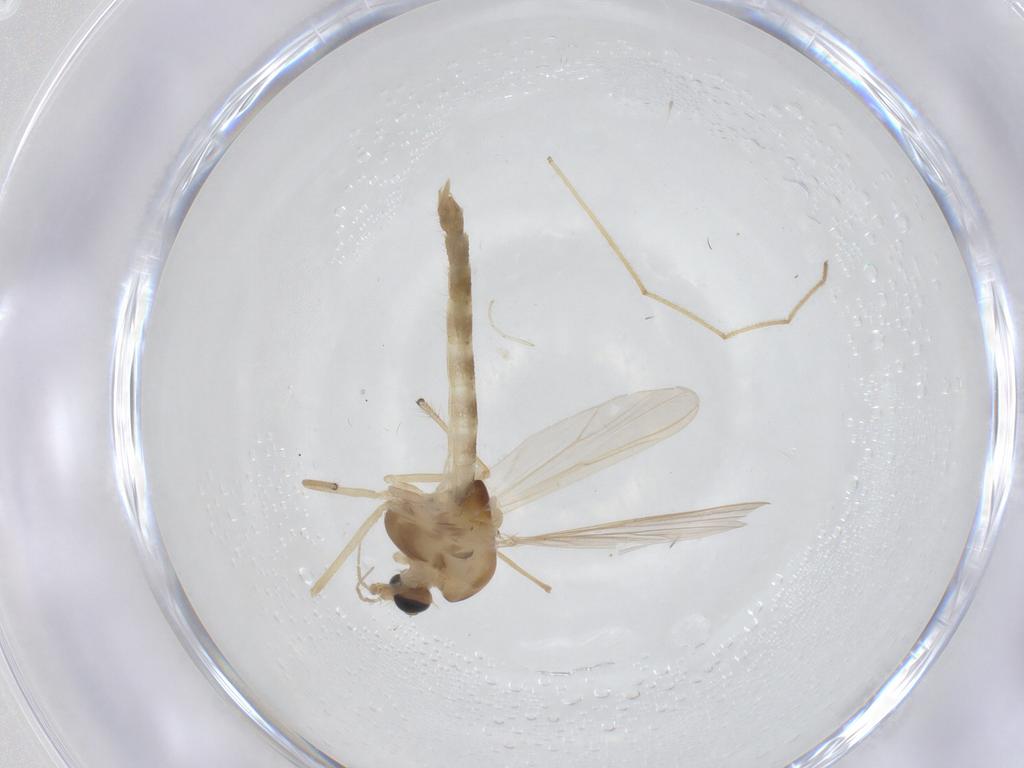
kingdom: Animalia
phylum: Arthropoda
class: Insecta
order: Diptera
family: Chironomidae
